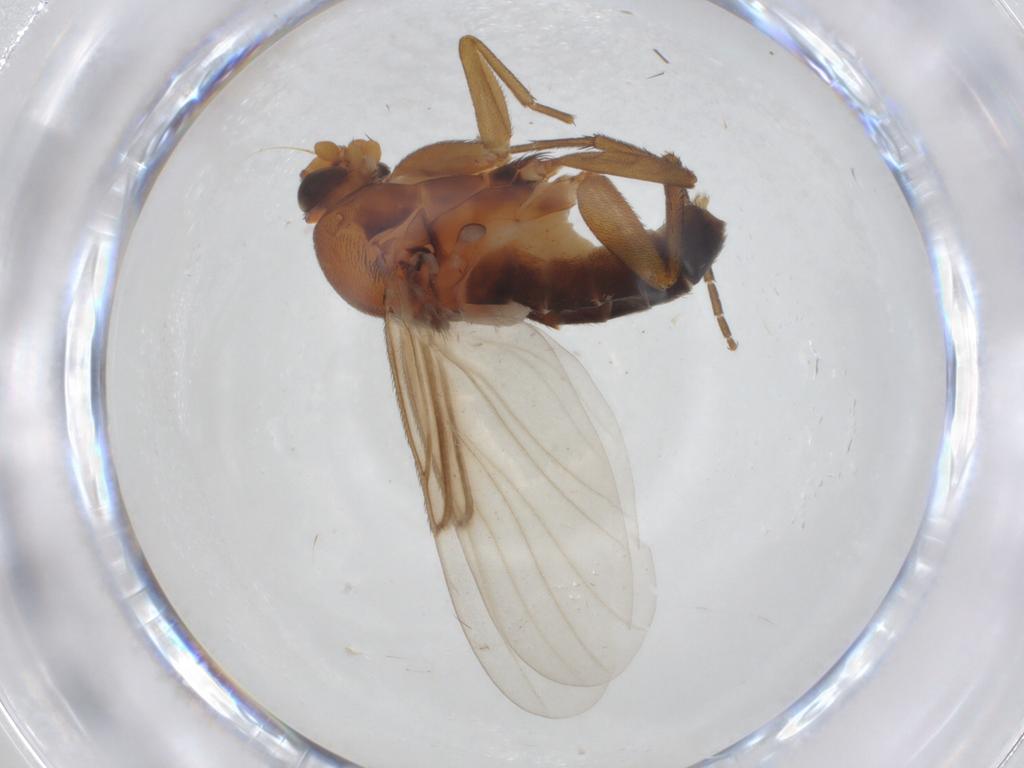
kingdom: Animalia
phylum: Arthropoda
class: Insecta
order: Diptera
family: Phoridae
